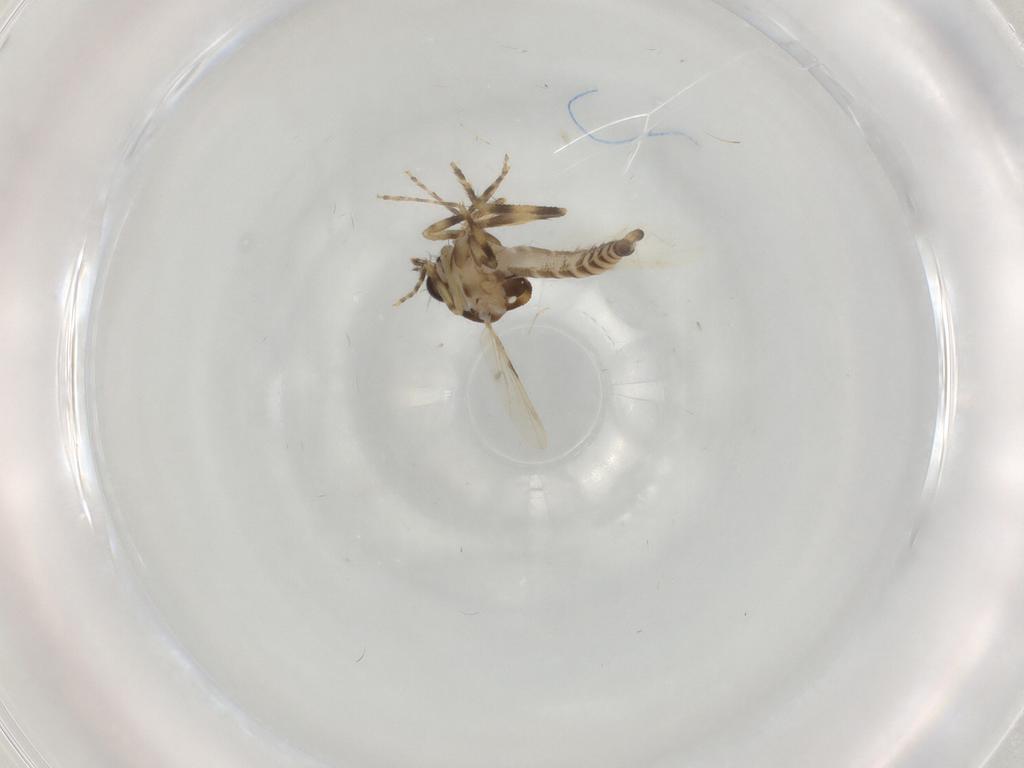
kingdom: Animalia
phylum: Arthropoda
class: Insecta
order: Diptera
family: Ceratopogonidae
